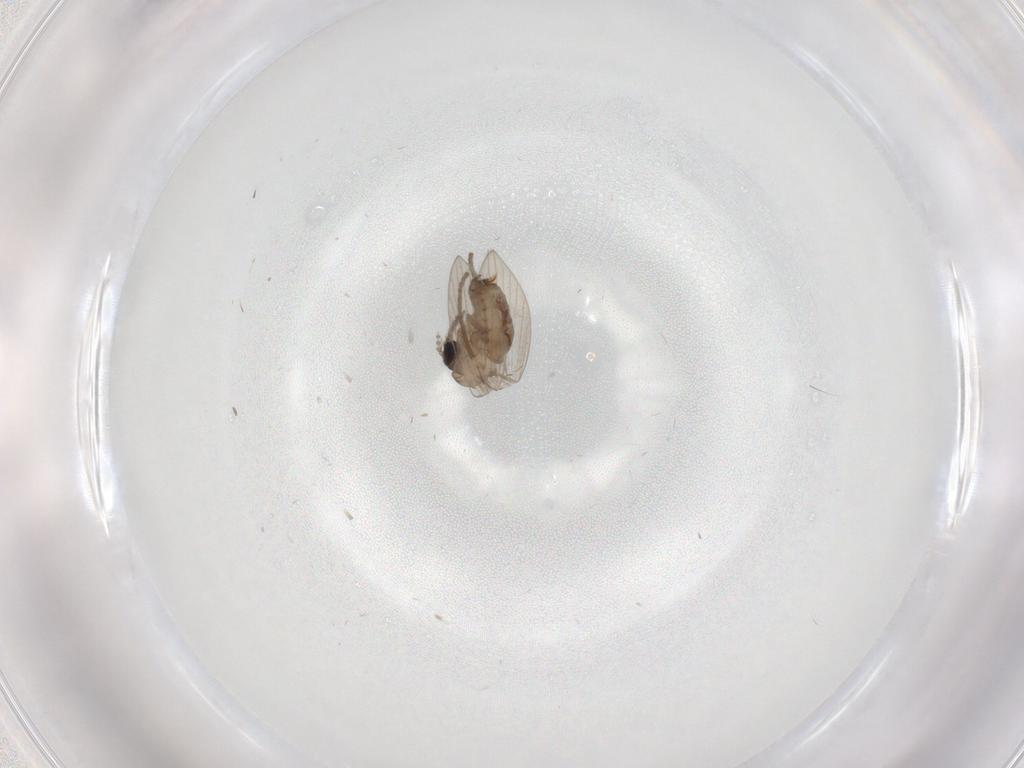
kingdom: Animalia
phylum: Arthropoda
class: Insecta
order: Diptera
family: Psychodidae
